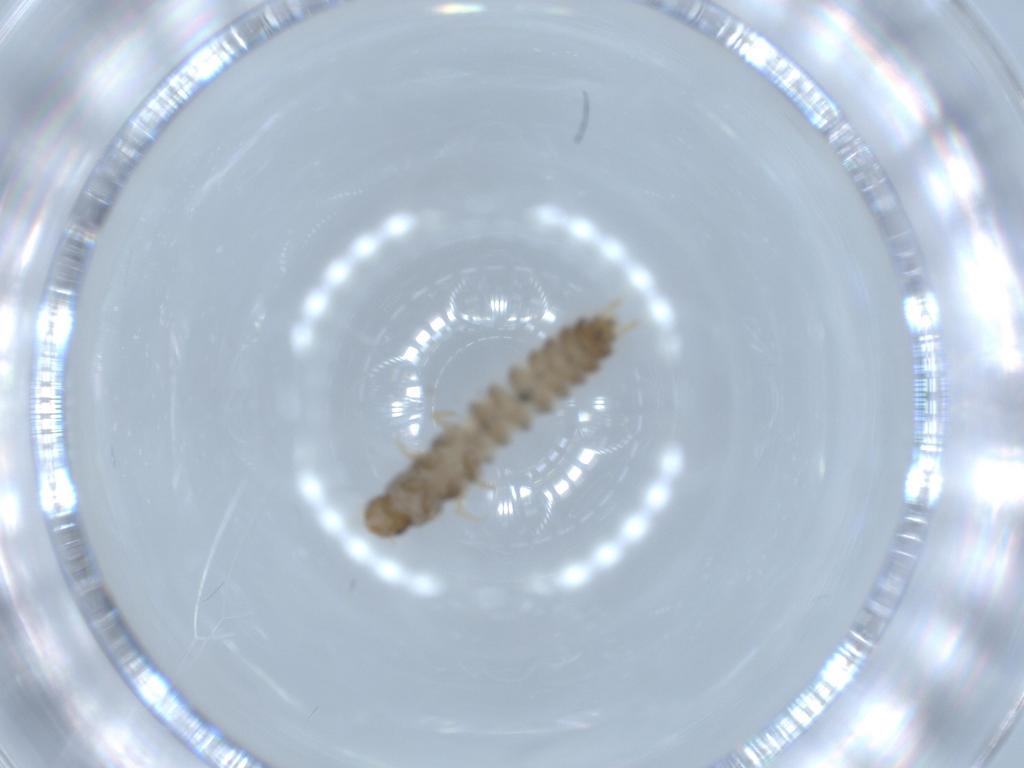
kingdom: Animalia
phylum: Arthropoda
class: Insecta
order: Coleoptera
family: Staphylinidae
